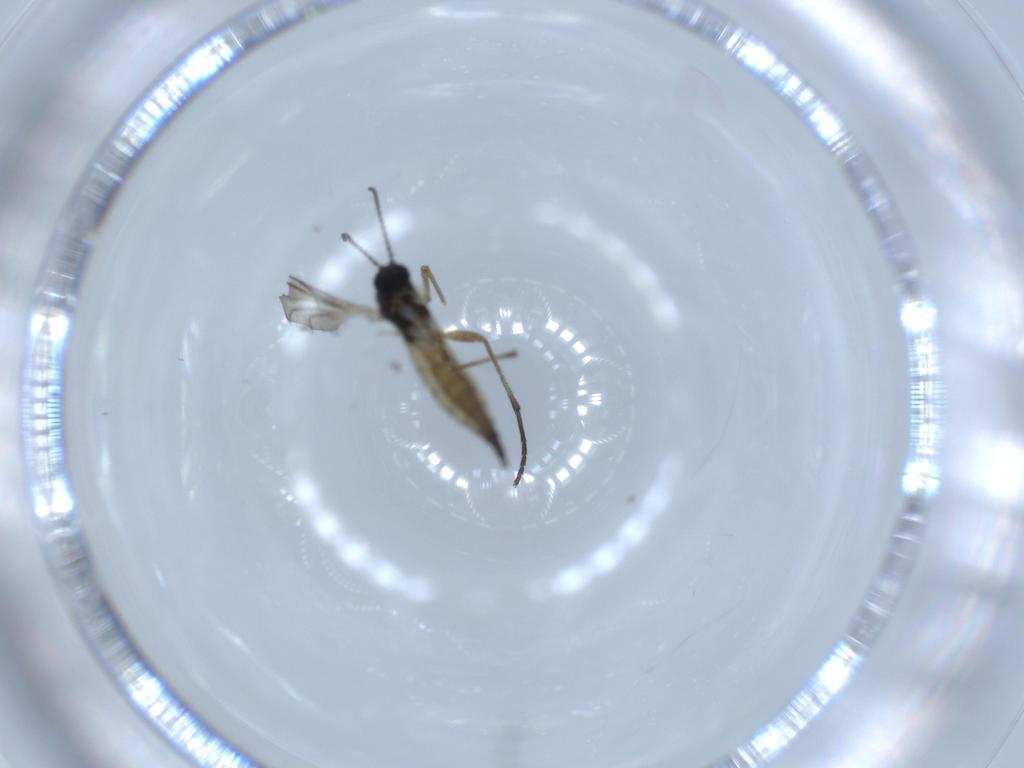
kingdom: Animalia
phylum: Arthropoda
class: Insecta
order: Diptera
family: Sciaridae
